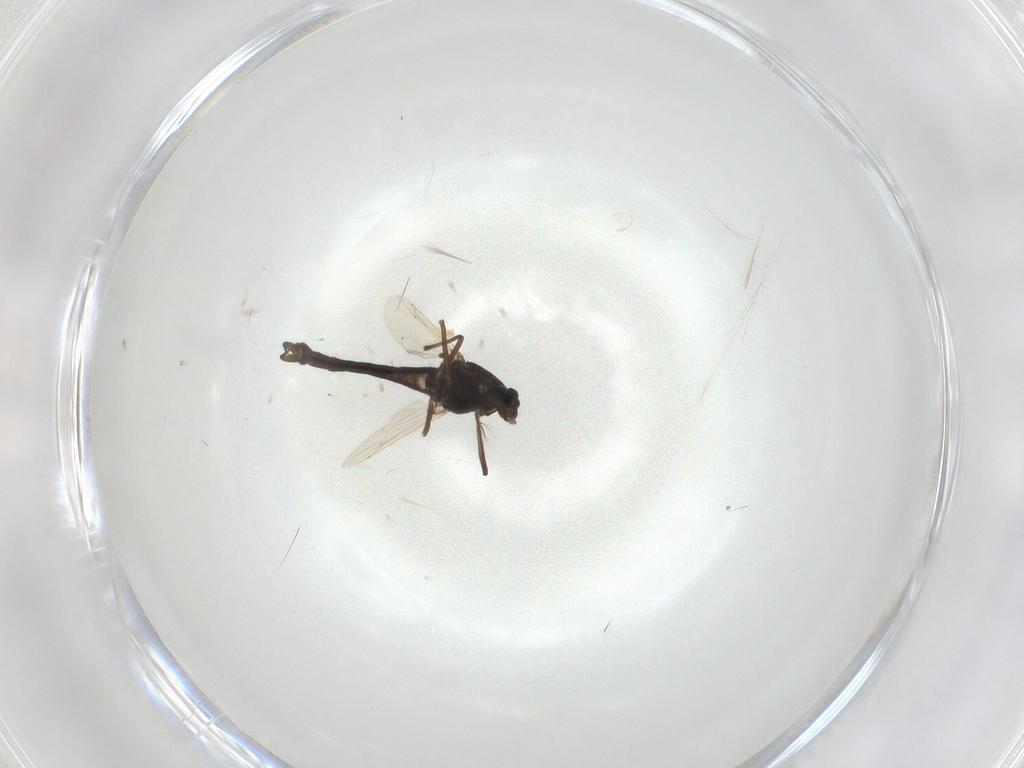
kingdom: Animalia
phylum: Arthropoda
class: Insecta
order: Diptera
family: Chironomidae
